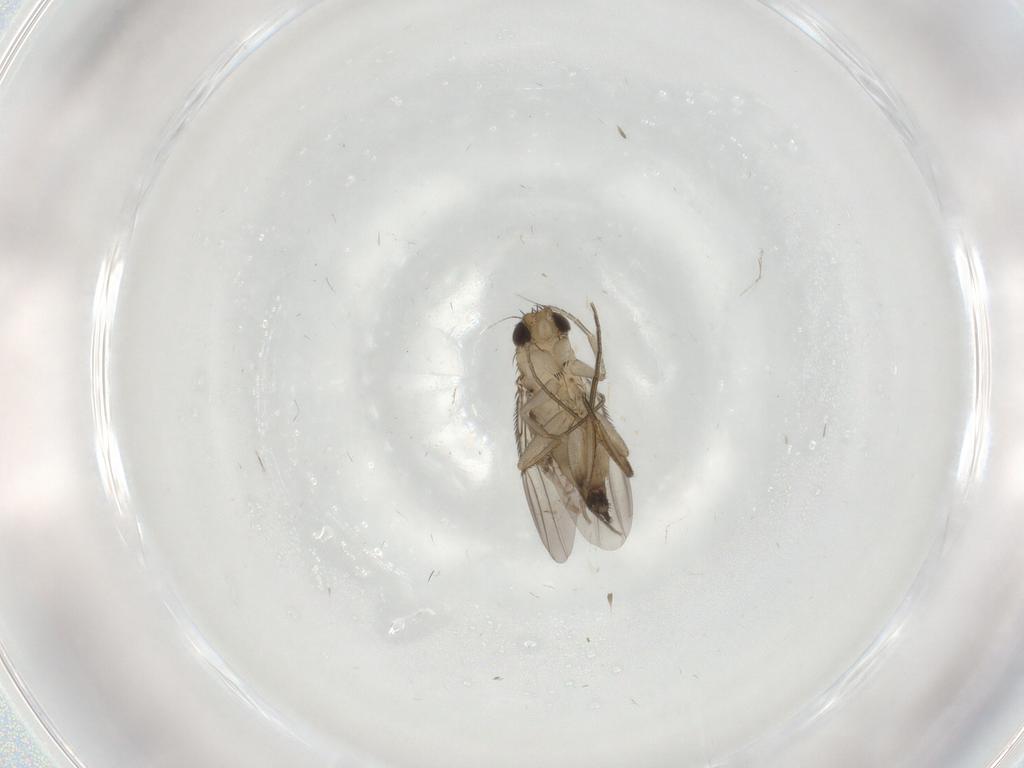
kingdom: Animalia
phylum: Arthropoda
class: Insecta
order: Diptera
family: Phoridae
